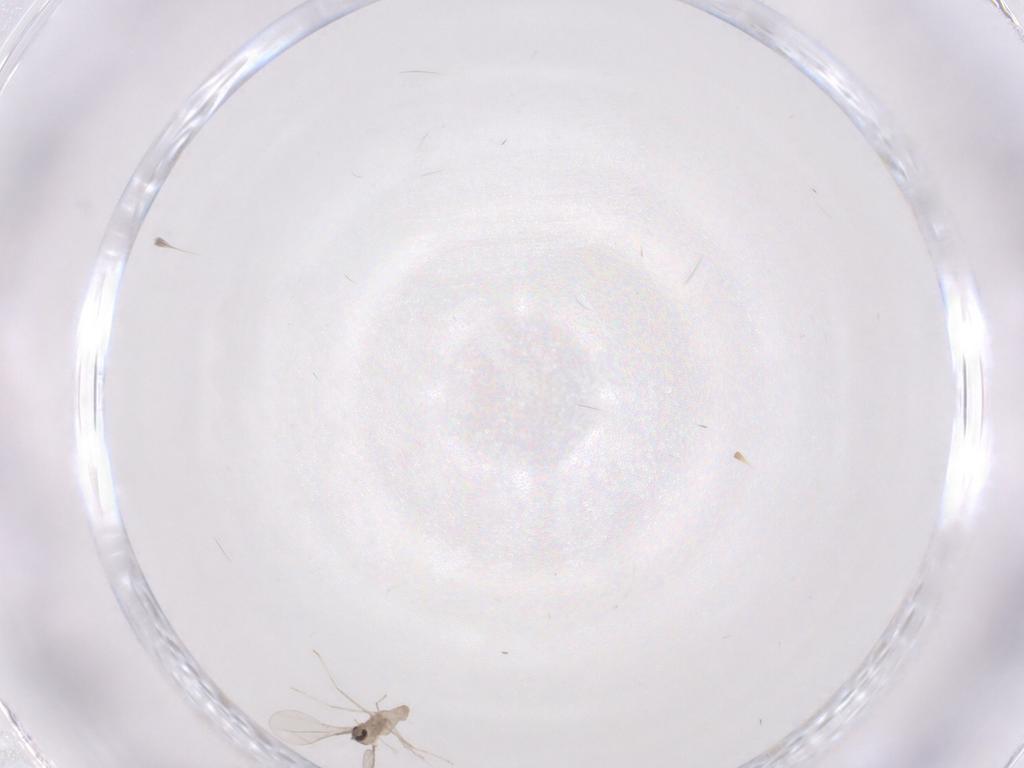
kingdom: Animalia
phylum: Arthropoda
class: Insecta
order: Diptera
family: Cecidomyiidae
